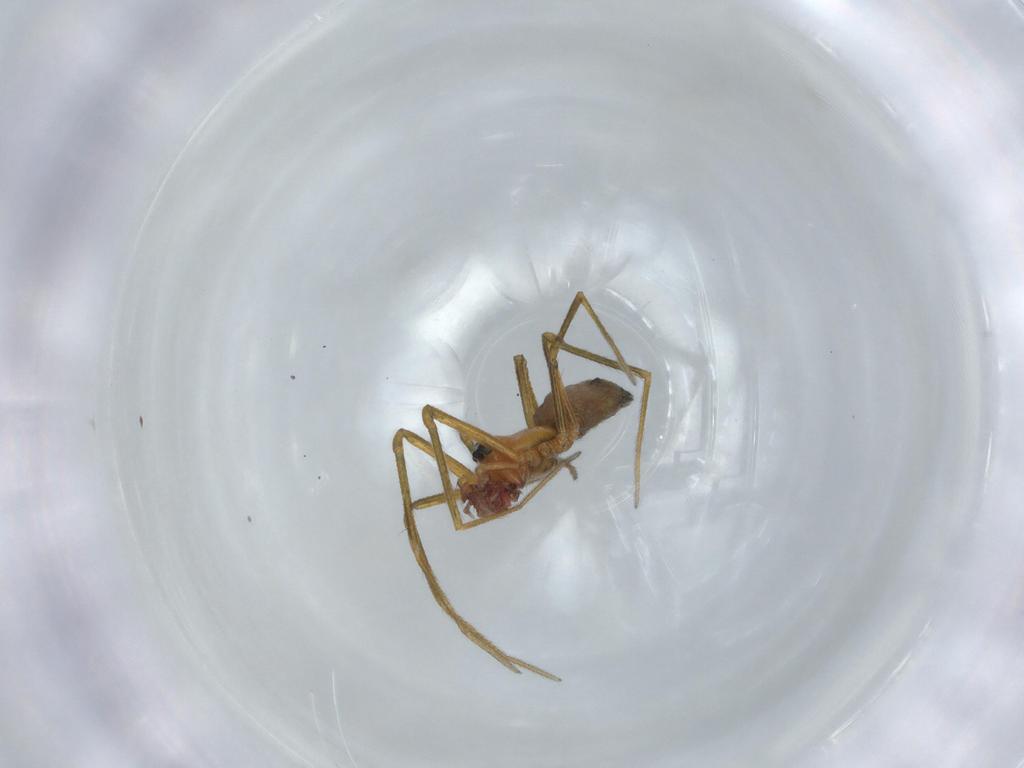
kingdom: Animalia
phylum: Arthropoda
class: Arachnida
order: Araneae
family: Linyphiidae
